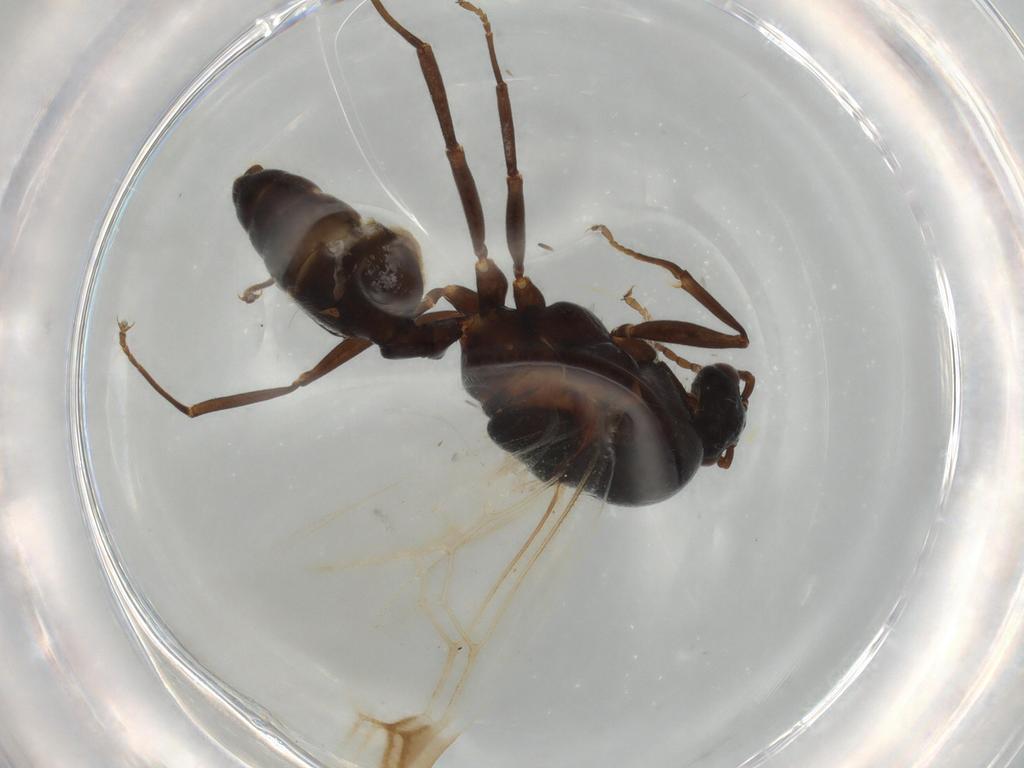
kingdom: Animalia
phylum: Arthropoda
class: Insecta
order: Hymenoptera
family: Formicidae
